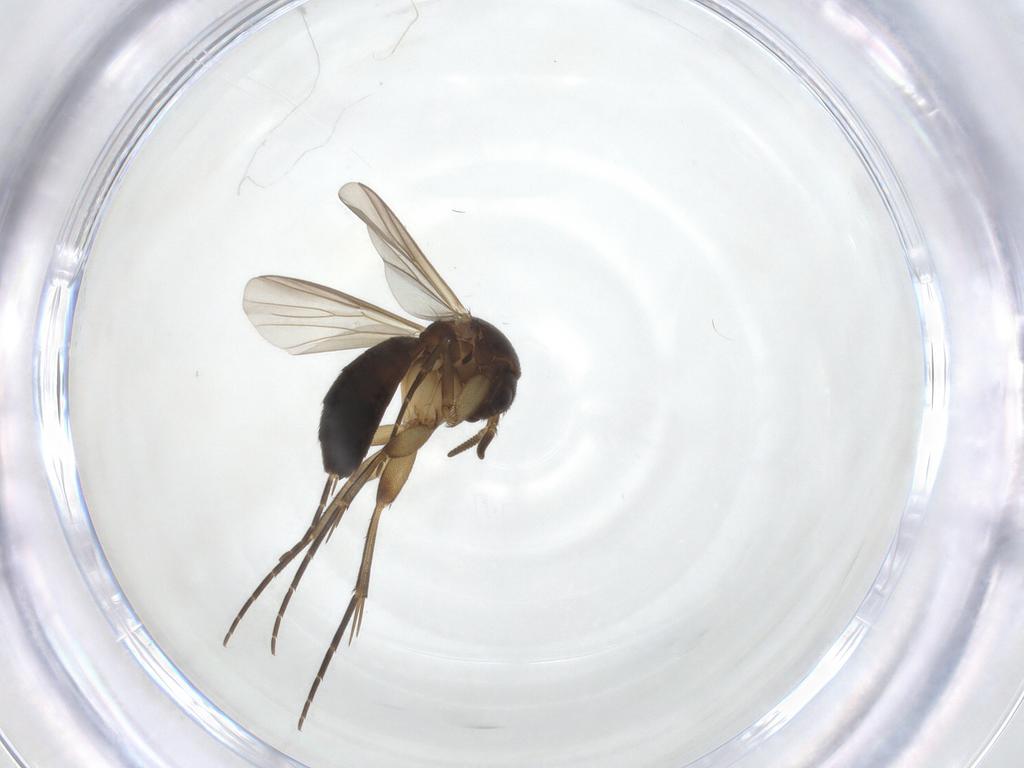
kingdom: Animalia
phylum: Arthropoda
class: Insecta
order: Diptera
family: Mycetophilidae
